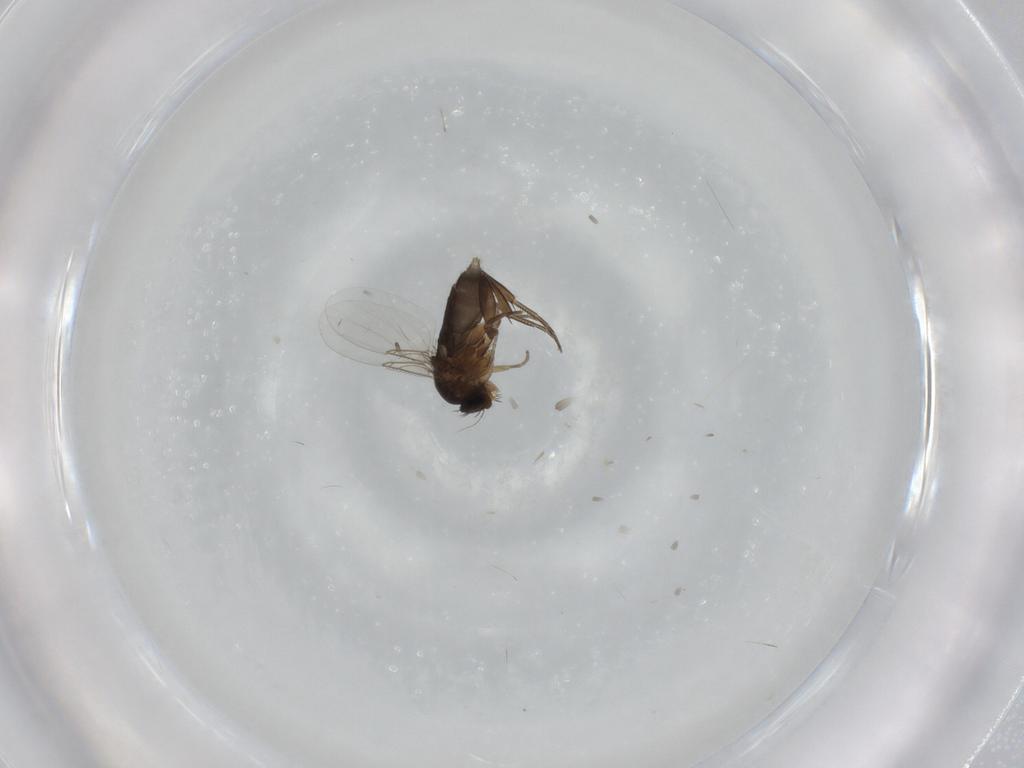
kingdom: Animalia
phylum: Arthropoda
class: Insecta
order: Diptera
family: Phoridae
